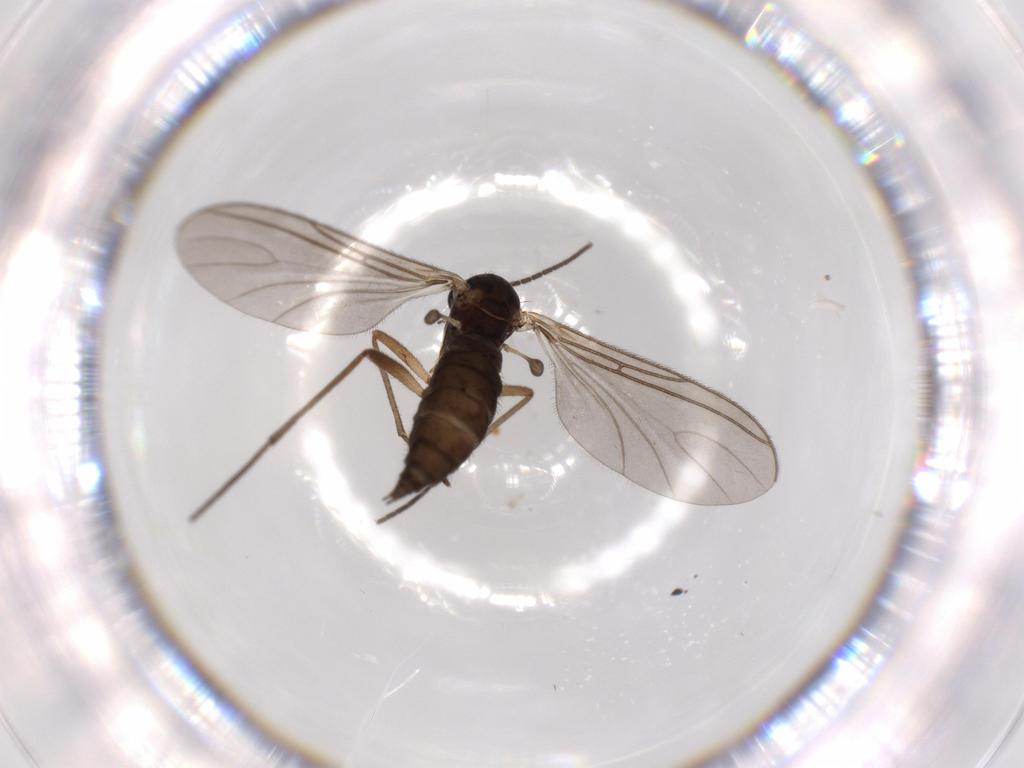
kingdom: Animalia
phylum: Arthropoda
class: Insecta
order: Diptera
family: Sciaridae
